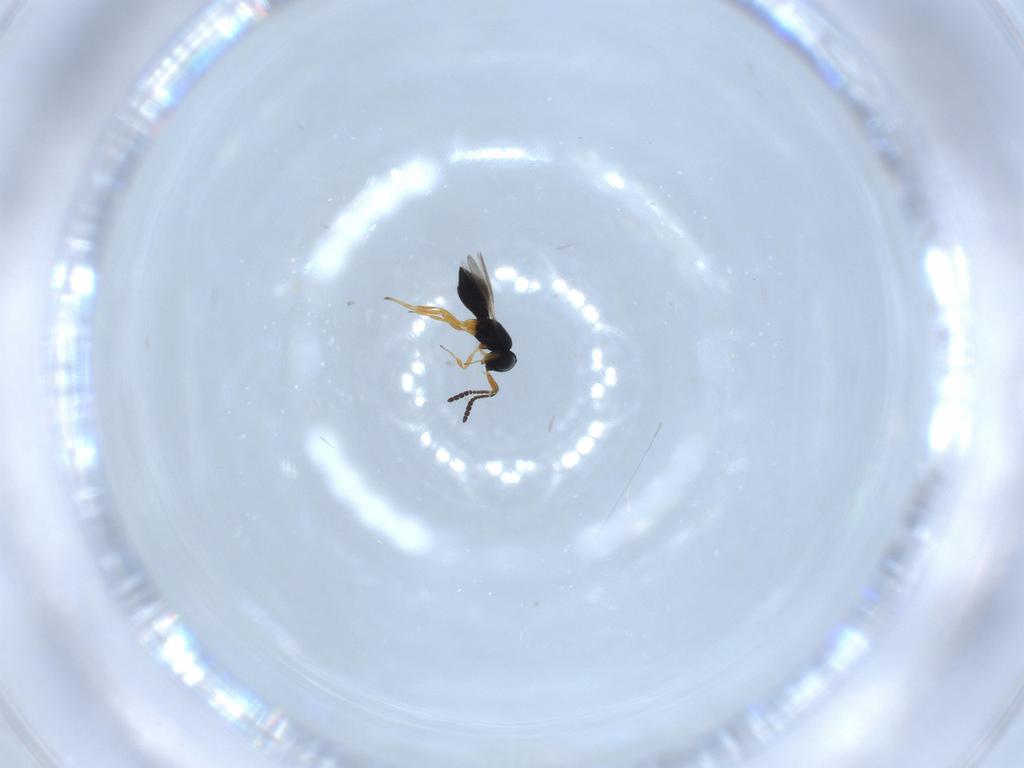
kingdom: Animalia
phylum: Arthropoda
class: Insecta
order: Hymenoptera
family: Scelionidae
